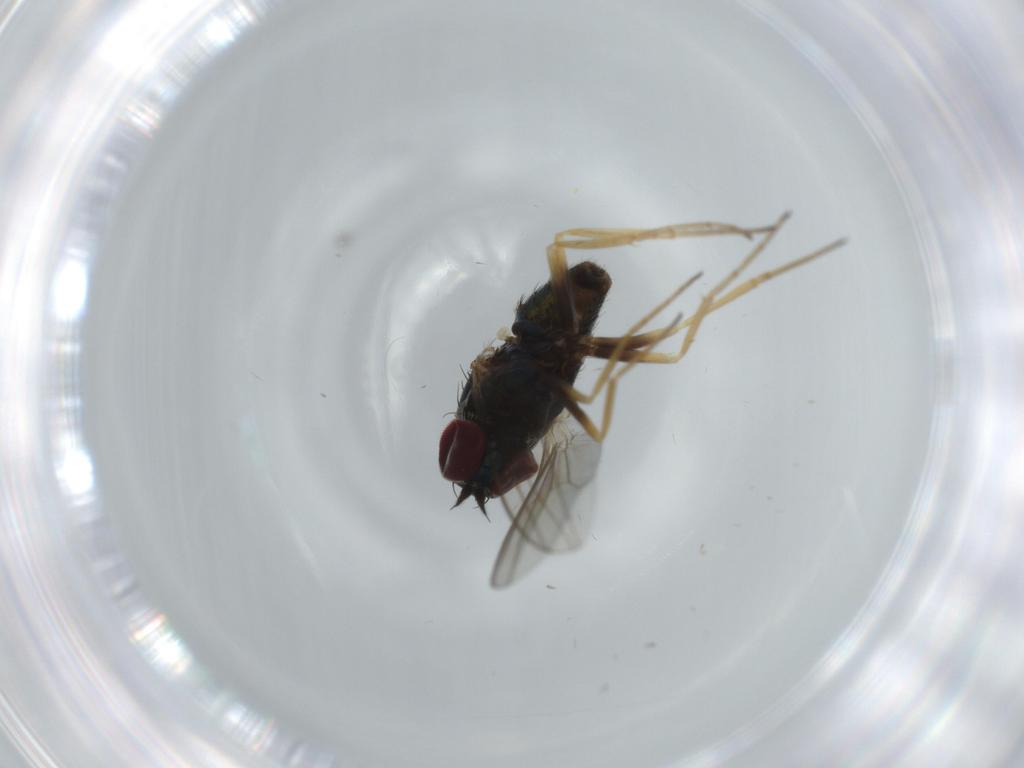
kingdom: Animalia
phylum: Arthropoda
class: Insecta
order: Diptera
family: Dolichopodidae
